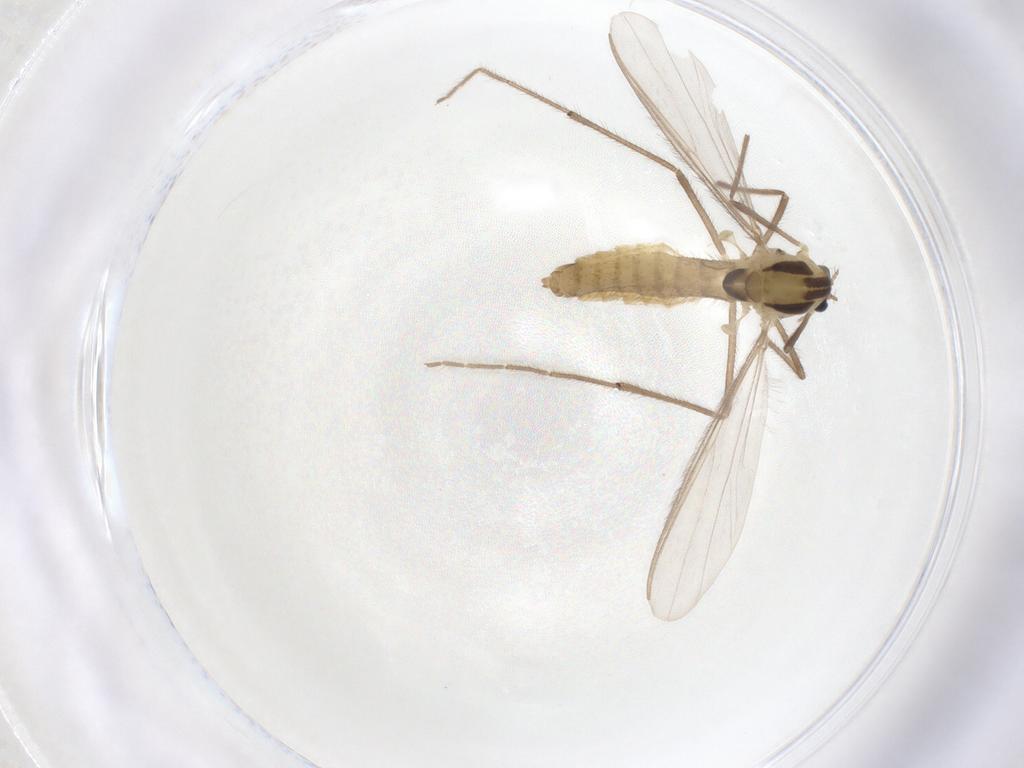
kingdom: Animalia
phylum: Arthropoda
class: Insecta
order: Diptera
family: Chironomidae
